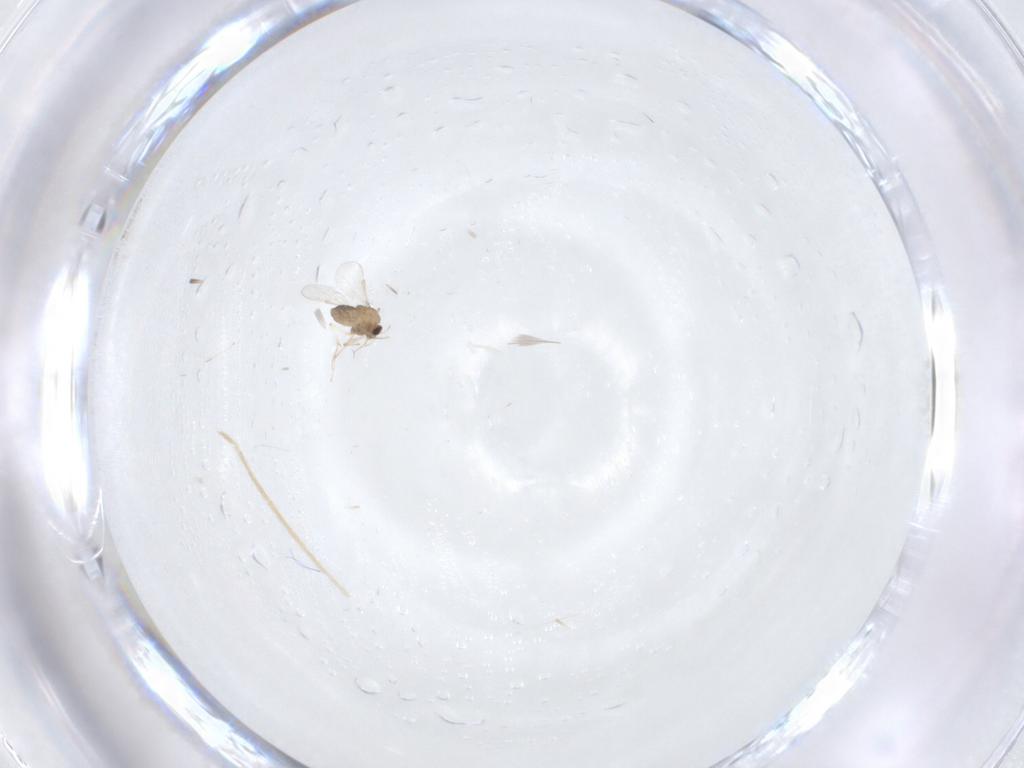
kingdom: Animalia
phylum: Arthropoda
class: Insecta
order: Diptera
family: Chironomidae
